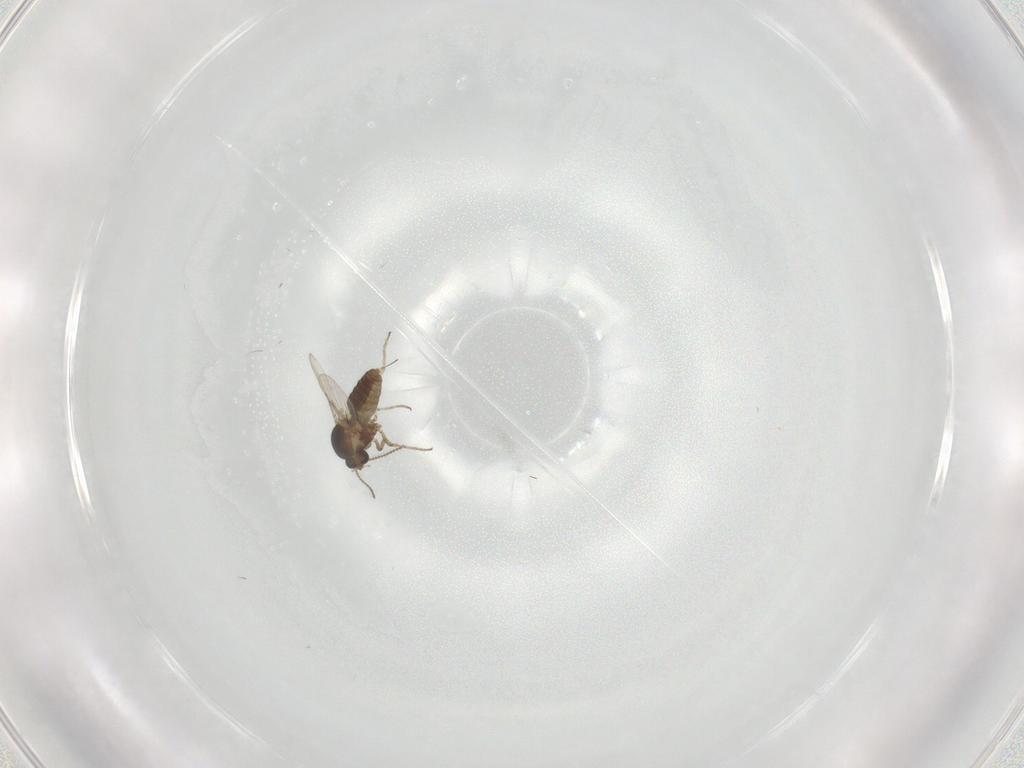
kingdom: Animalia
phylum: Arthropoda
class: Insecta
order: Diptera
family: Ceratopogonidae
